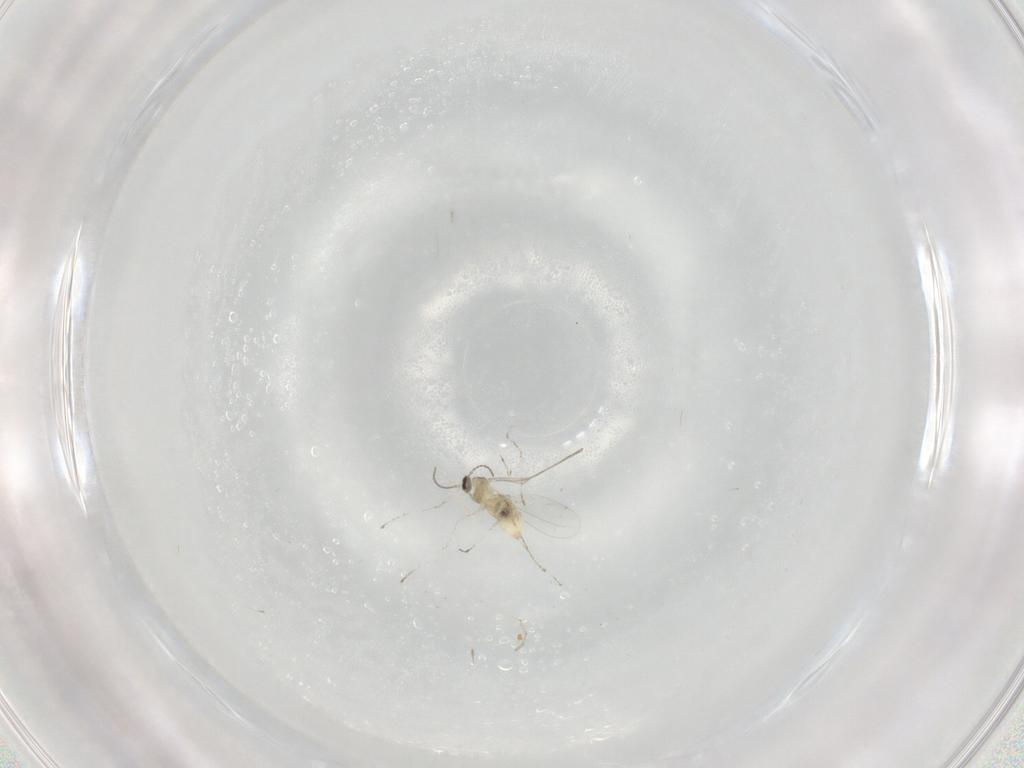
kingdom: Animalia
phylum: Arthropoda
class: Insecta
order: Diptera
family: Cecidomyiidae
